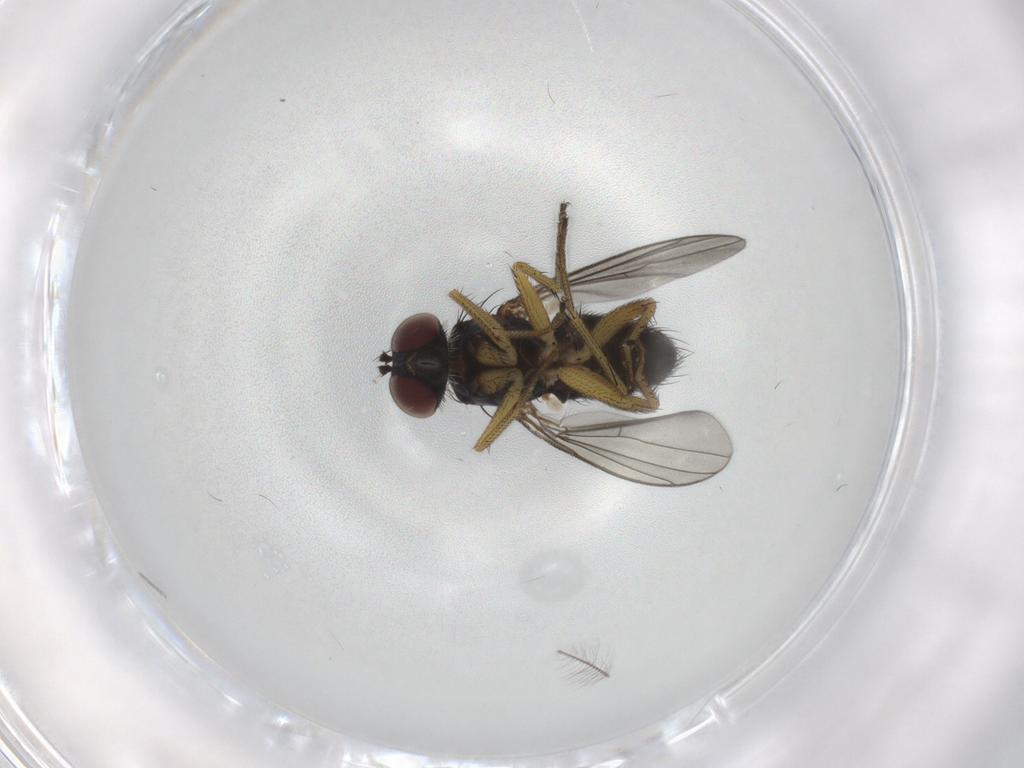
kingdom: Animalia
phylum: Arthropoda
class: Insecta
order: Diptera
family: Dolichopodidae
